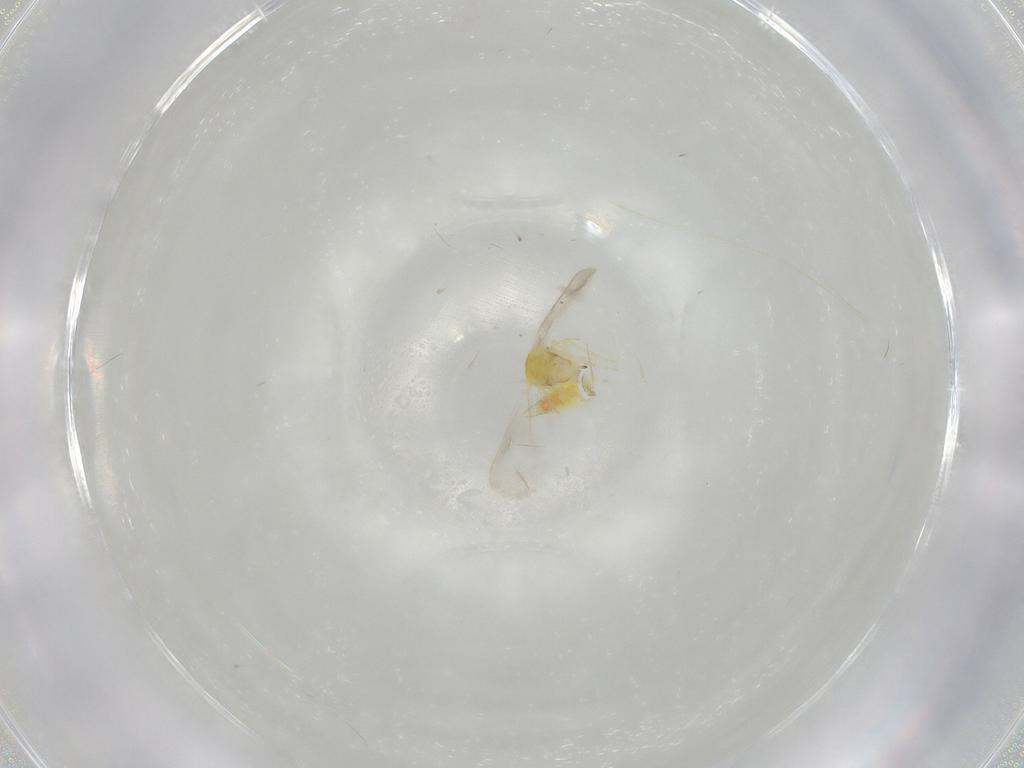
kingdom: Animalia
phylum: Arthropoda
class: Insecta
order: Hemiptera
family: Aleyrodidae
